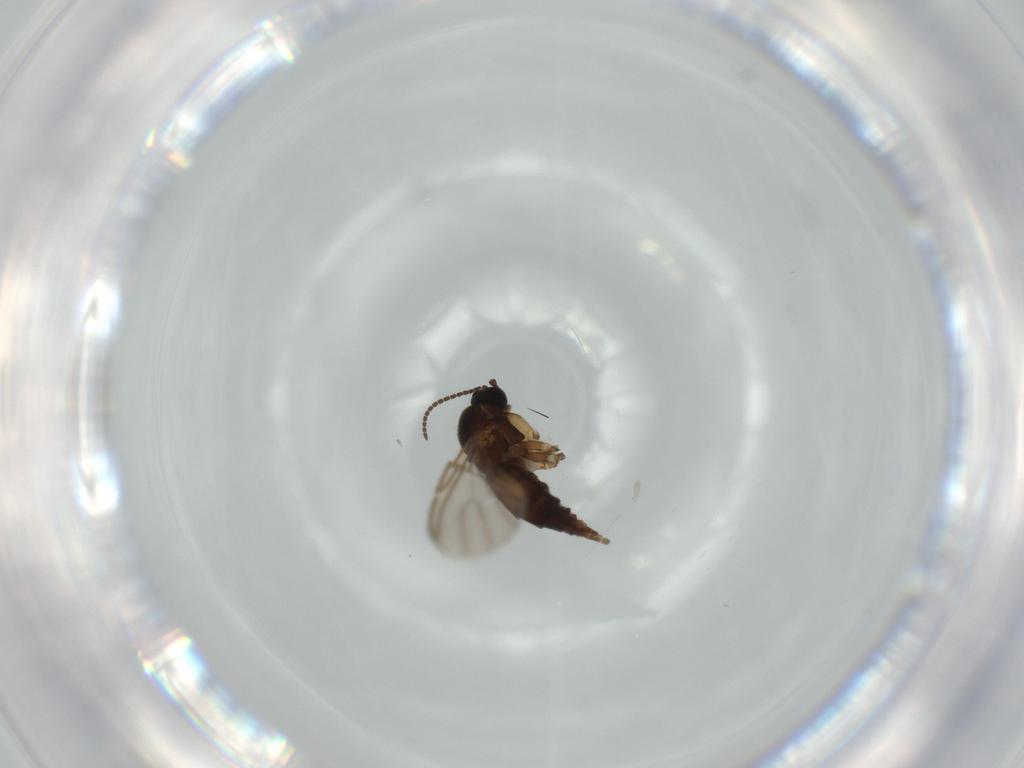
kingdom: Animalia
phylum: Arthropoda
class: Insecta
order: Diptera
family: Tachinidae
